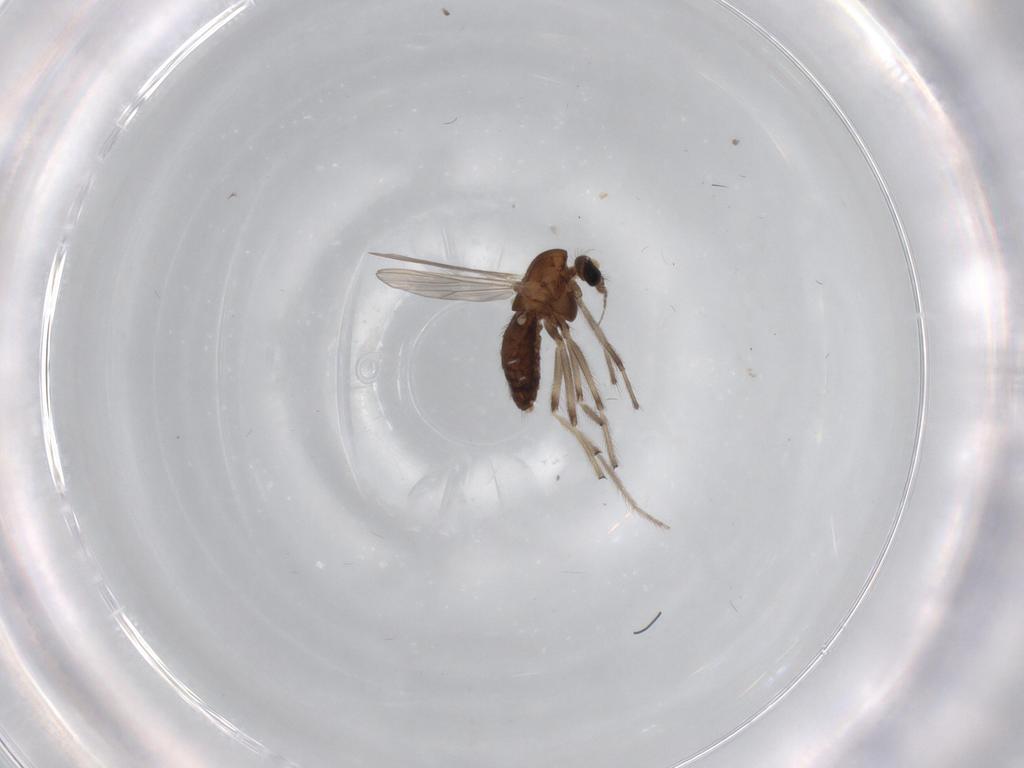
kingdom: Animalia
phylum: Arthropoda
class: Insecta
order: Diptera
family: Chironomidae
